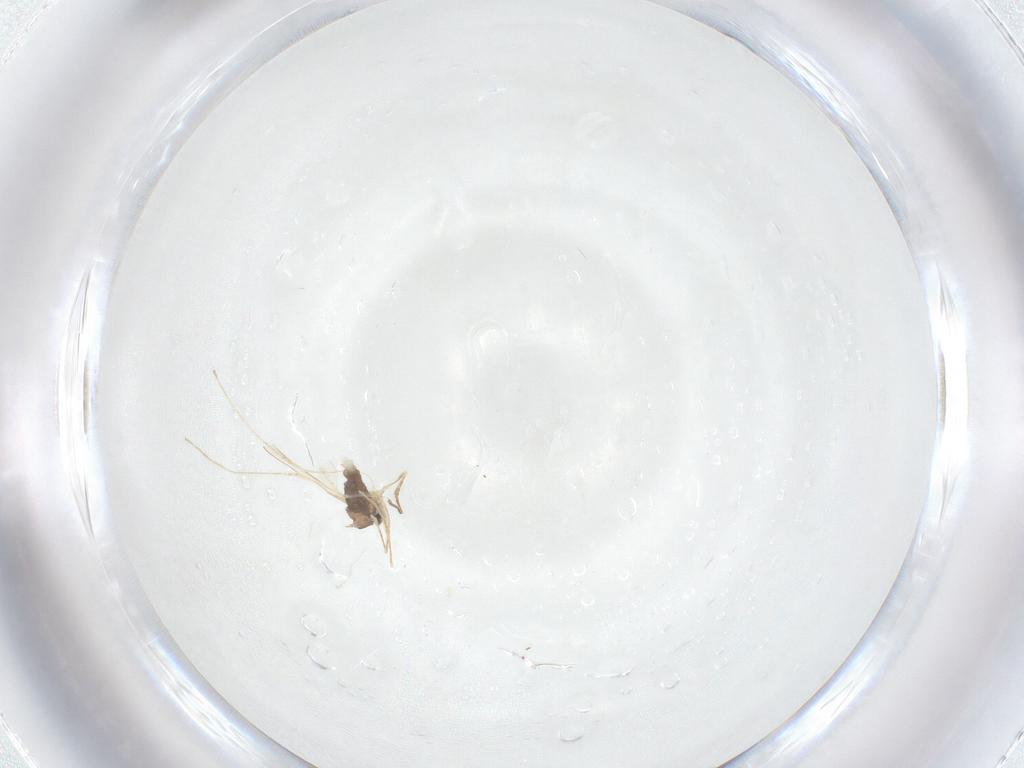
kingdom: Animalia
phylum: Arthropoda
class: Insecta
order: Diptera
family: Cecidomyiidae
